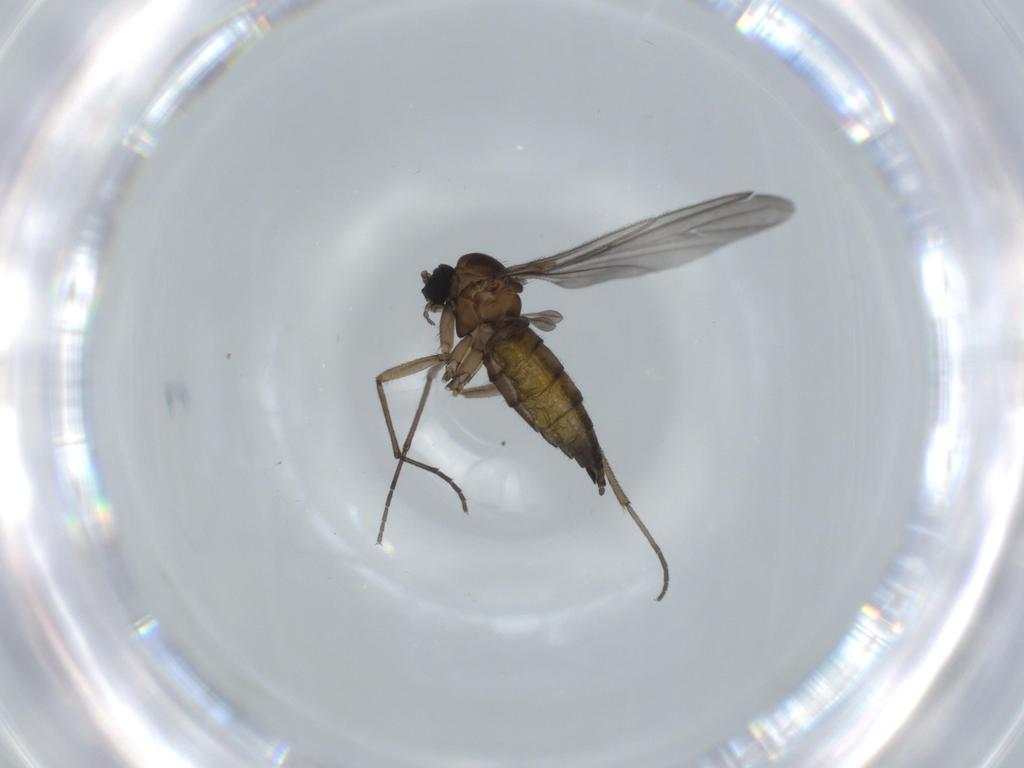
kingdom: Animalia
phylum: Arthropoda
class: Insecta
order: Diptera
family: Sciaridae
